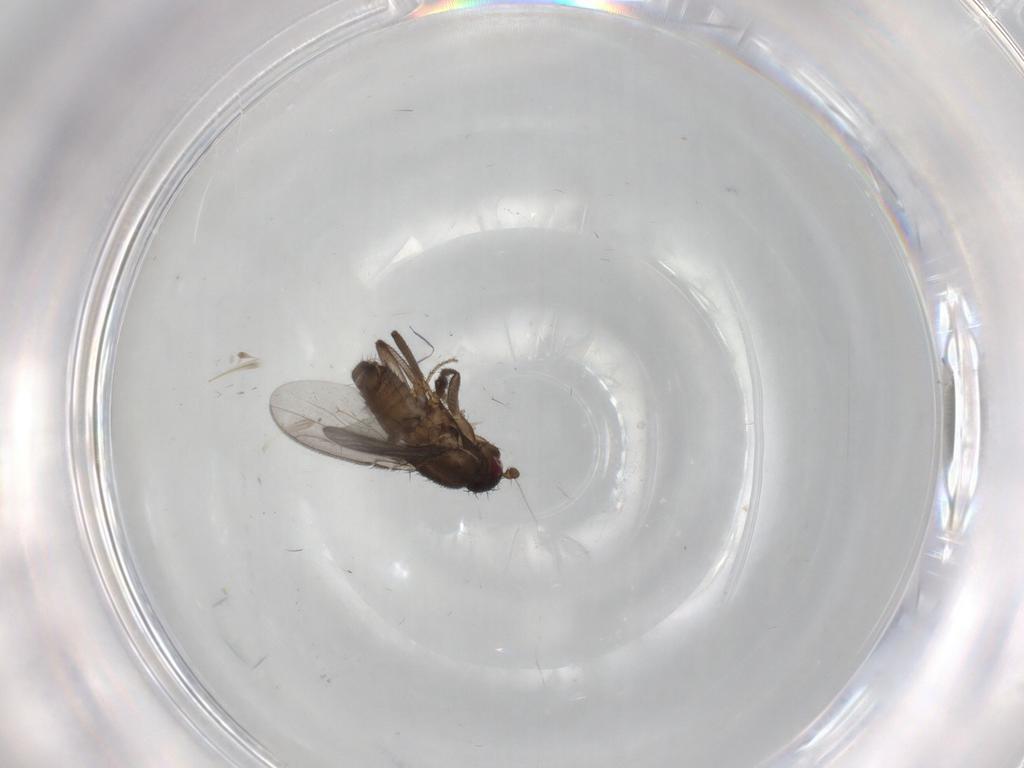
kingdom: Animalia
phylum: Arthropoda
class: Insecta
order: Diptera
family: Sphaeroceridae
